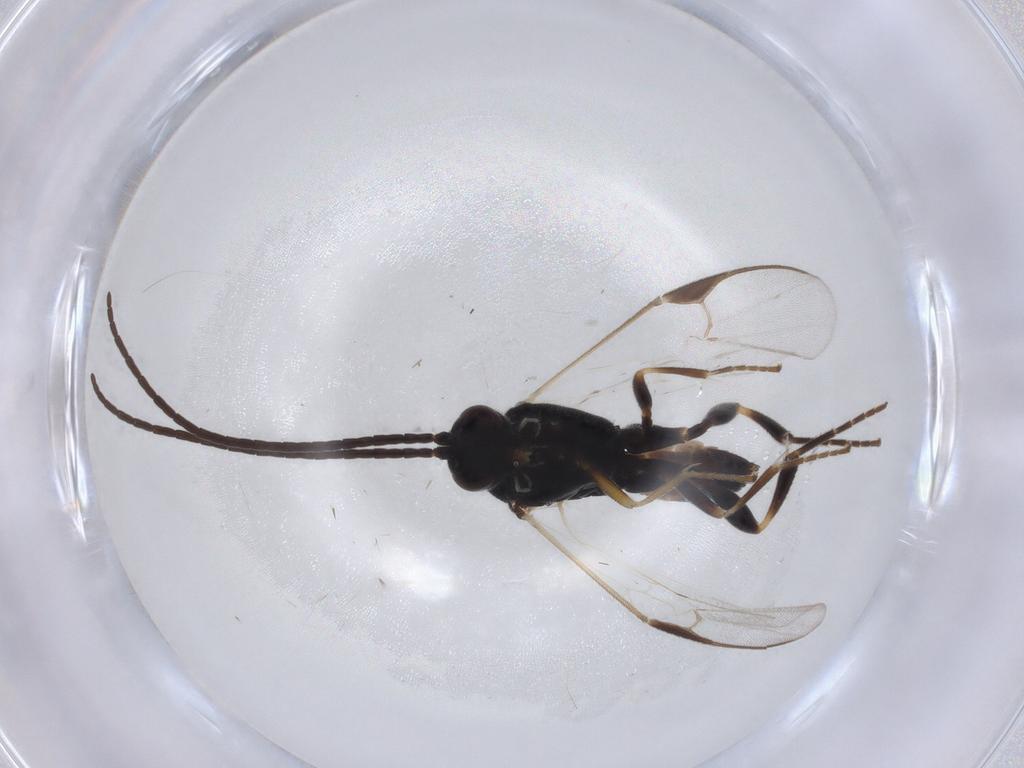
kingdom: Animalia
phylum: Arthropoda
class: Insecta
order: Hymenoptera
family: Braconidae
